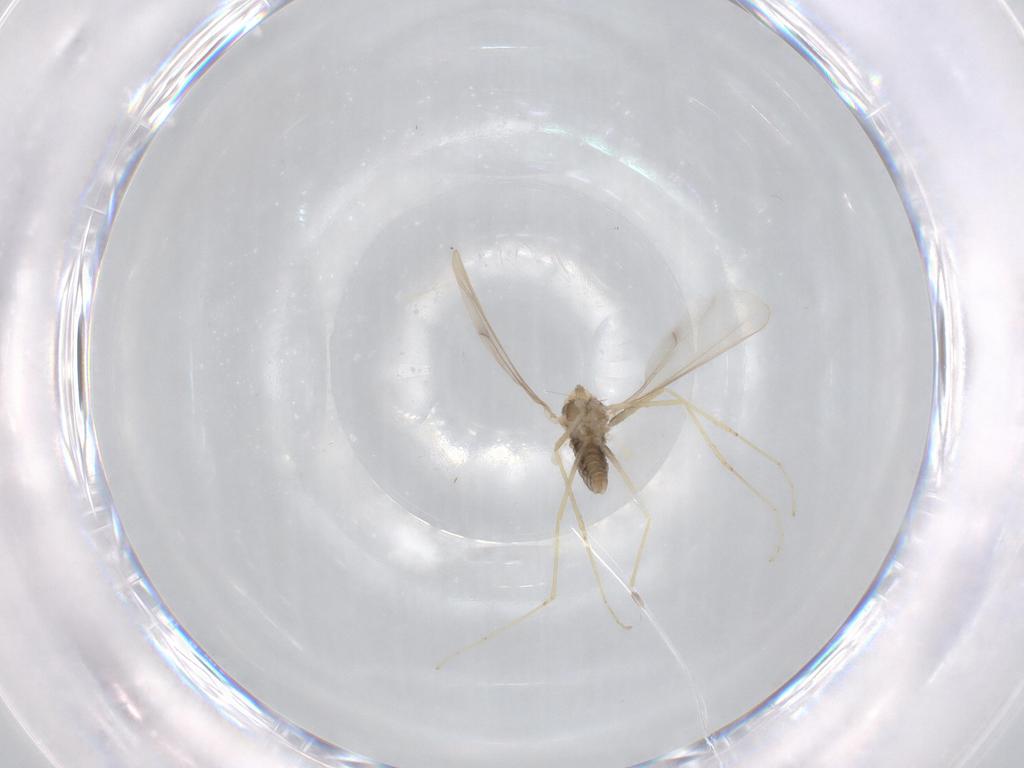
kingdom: Animalia
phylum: Arthropoda
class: Insecta
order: Diptera
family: Cecidomyiidae
